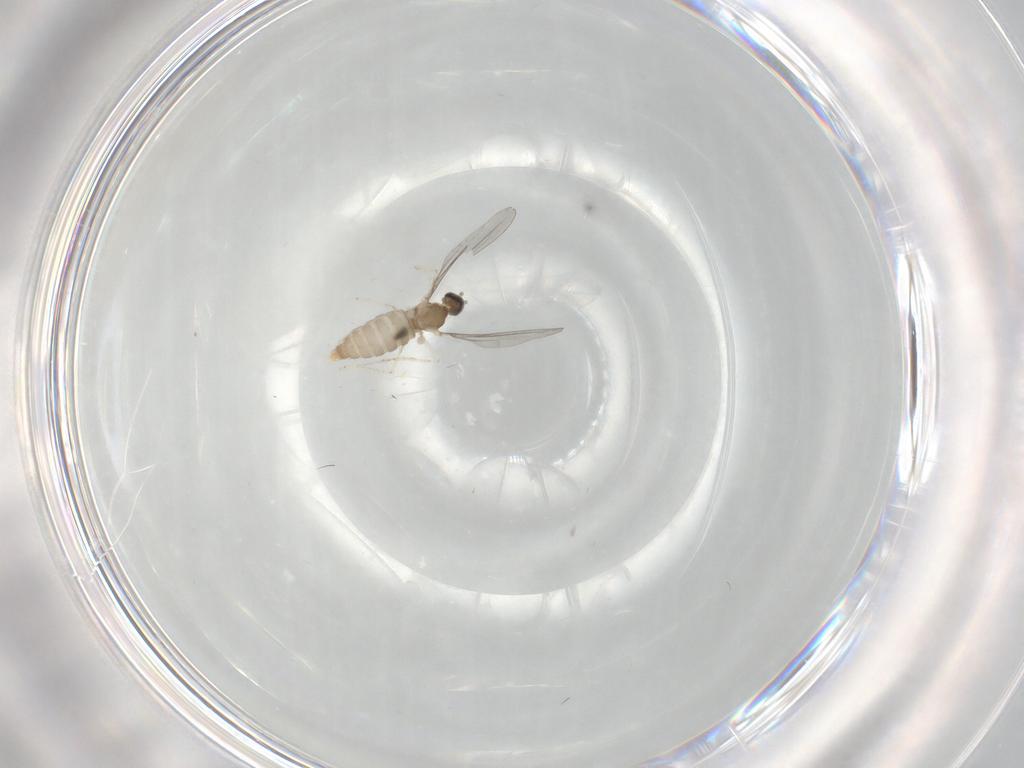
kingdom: Animalia
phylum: Arthropoda
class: Insecta
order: Diptera
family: Cecidomyiidae
